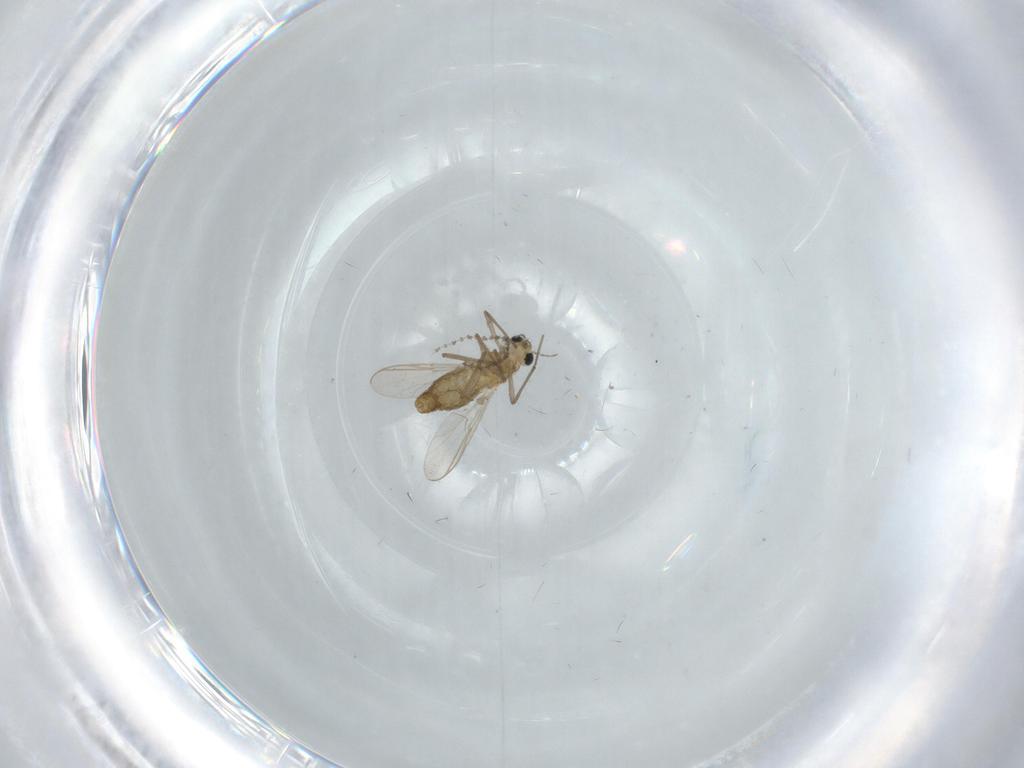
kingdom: Animalia
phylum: Arthropoda
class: Insecta
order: Diptera
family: Chironomidae
